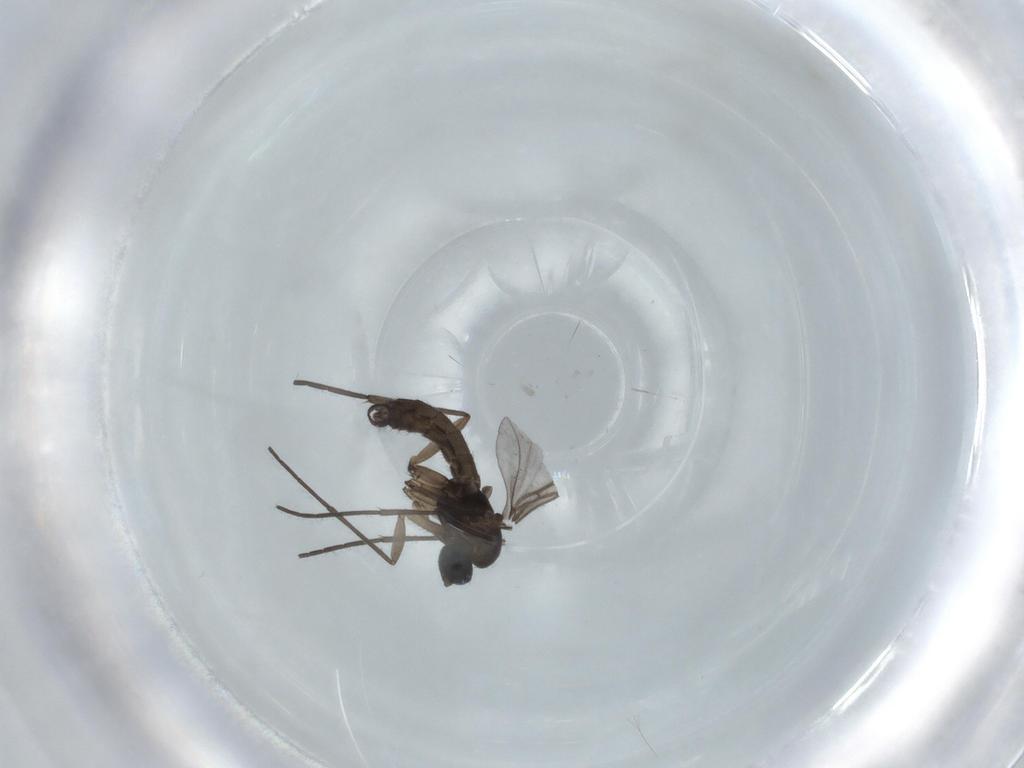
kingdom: Animalia
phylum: Arthropoda
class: Insecta
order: Diptera
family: Sciaridae
